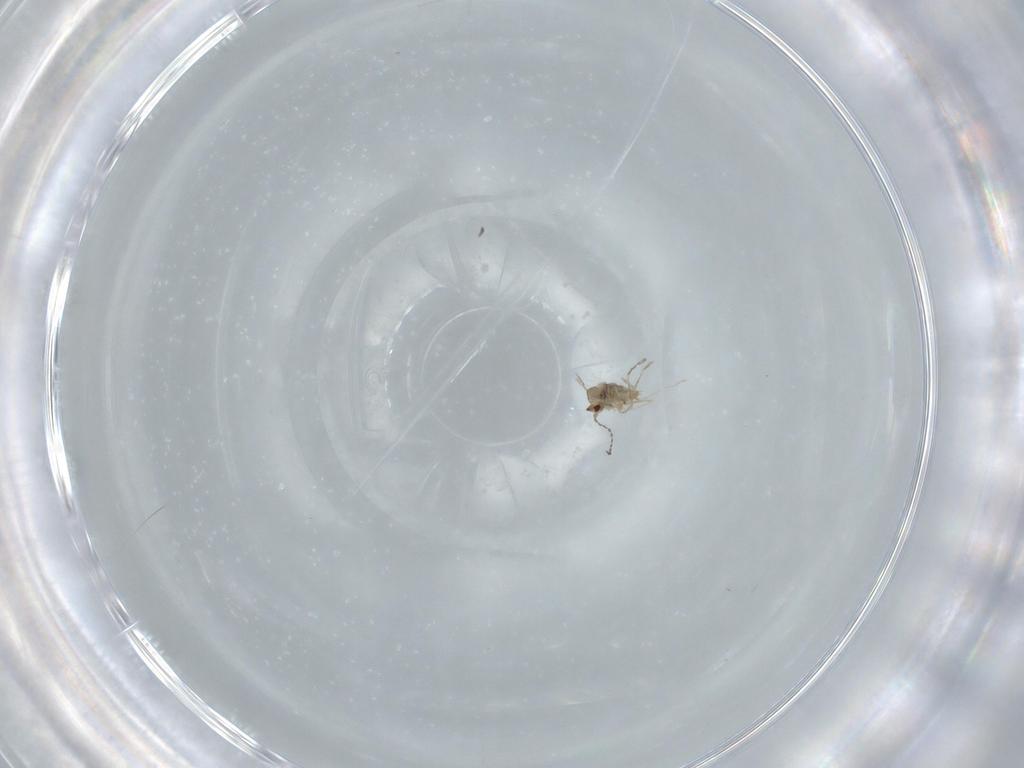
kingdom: Animalia
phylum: Arthropoda
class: Insecta
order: Diptera
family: Cecidomyiidae
